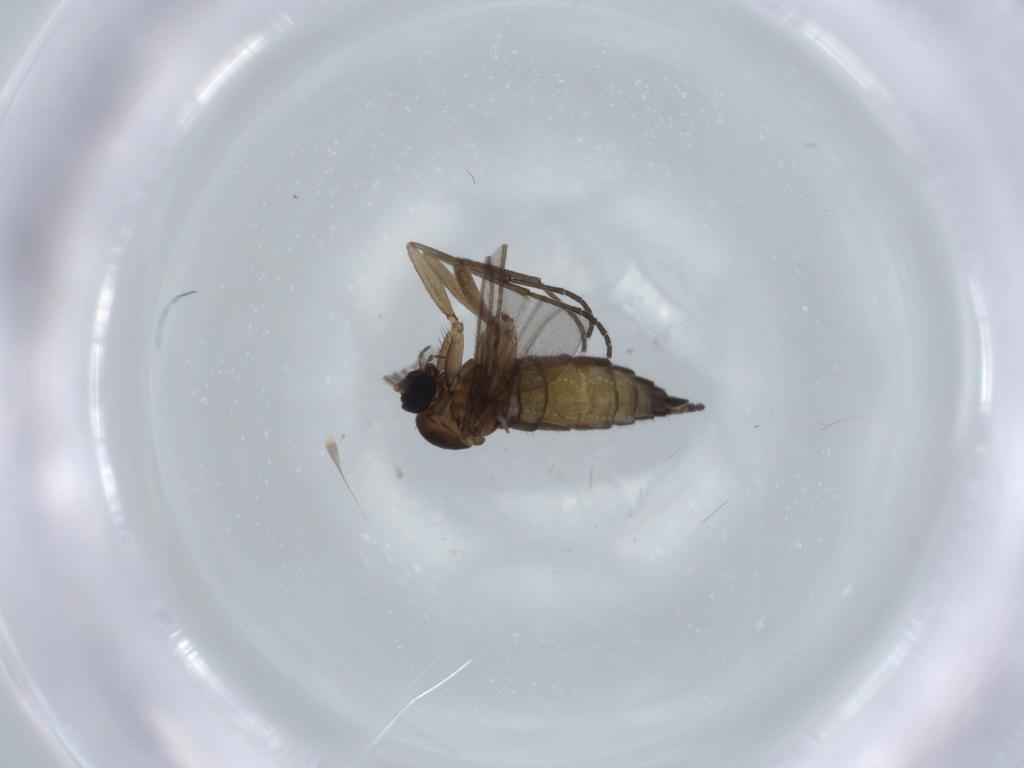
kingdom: Animalia
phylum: Arthropoda
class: Insecta
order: Diptera
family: Sciaridae
